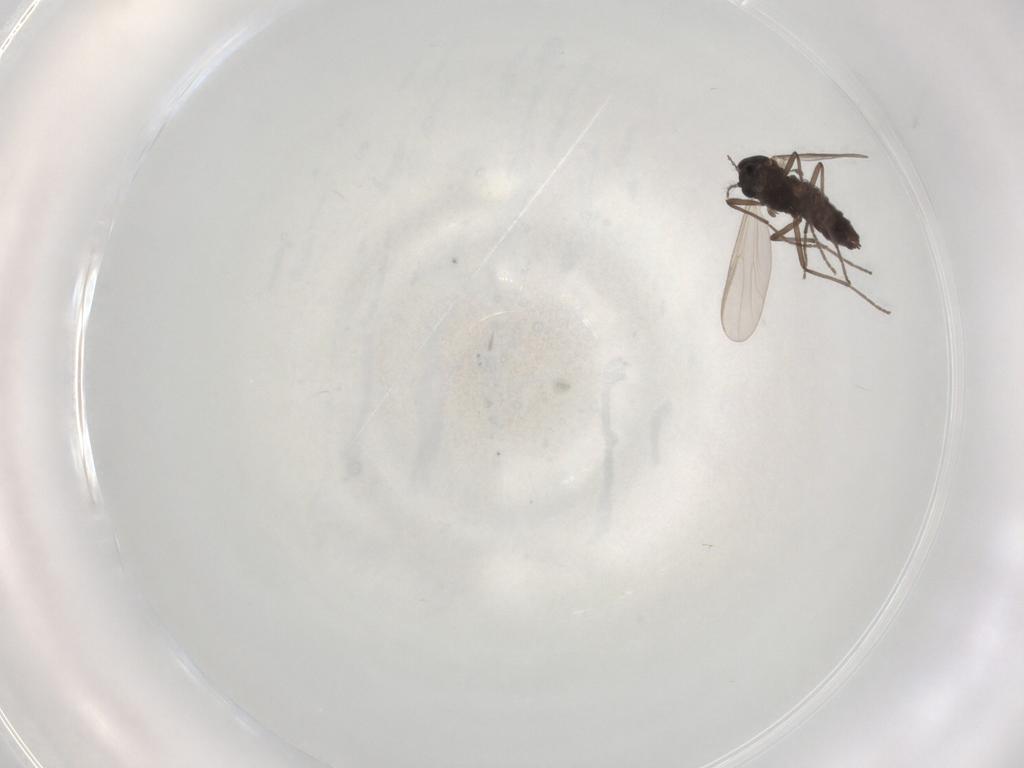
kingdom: Animalia
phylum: Arthropoda
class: Insecta
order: Diptera
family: Chironomidae
